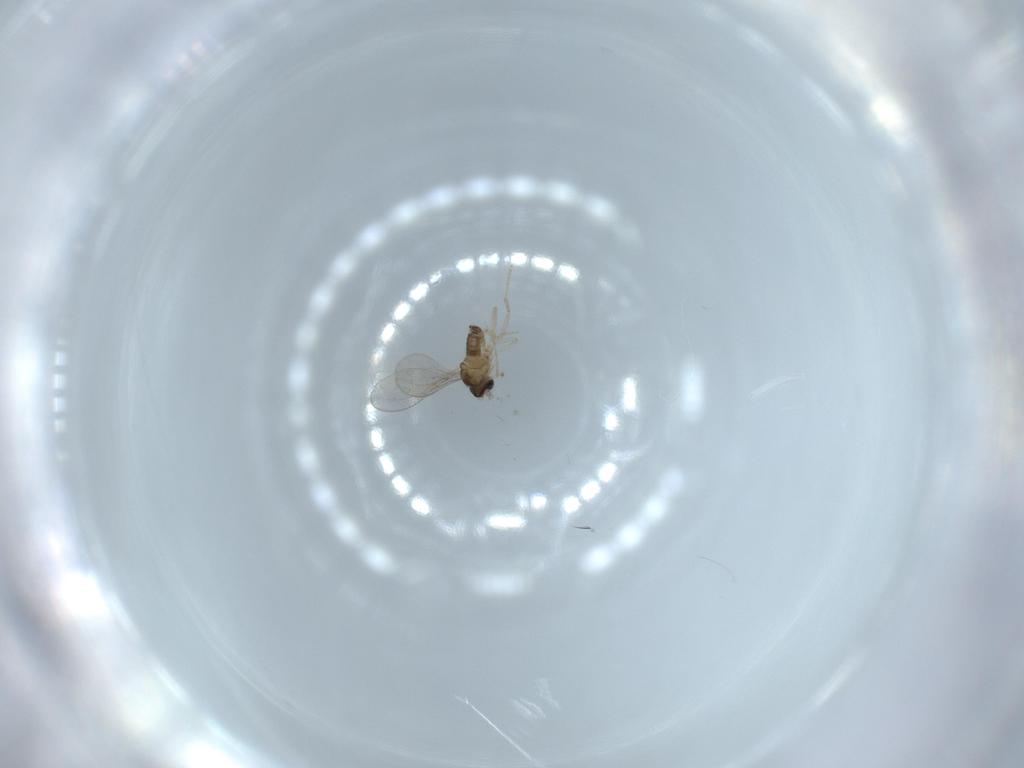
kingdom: Animalia
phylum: Arthropoda
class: Insecta
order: Diptera
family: Cecidomyiidae
